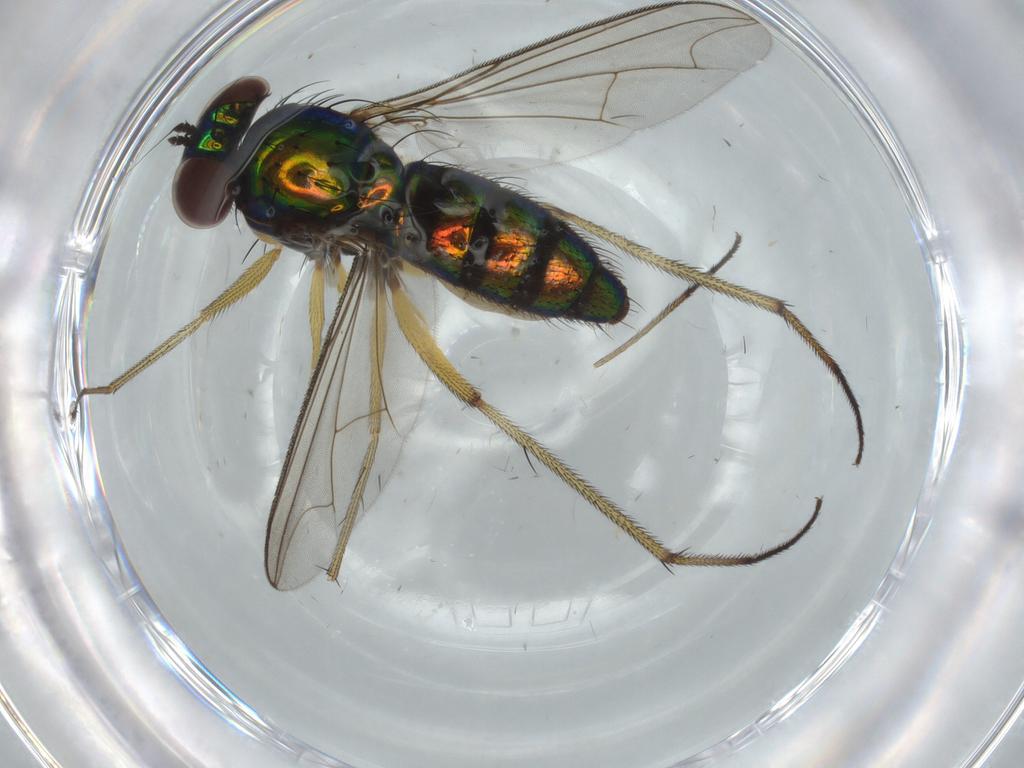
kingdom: Animalia
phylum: Arthropoda
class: Insecta
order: Diptera
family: Dolichopodidae
